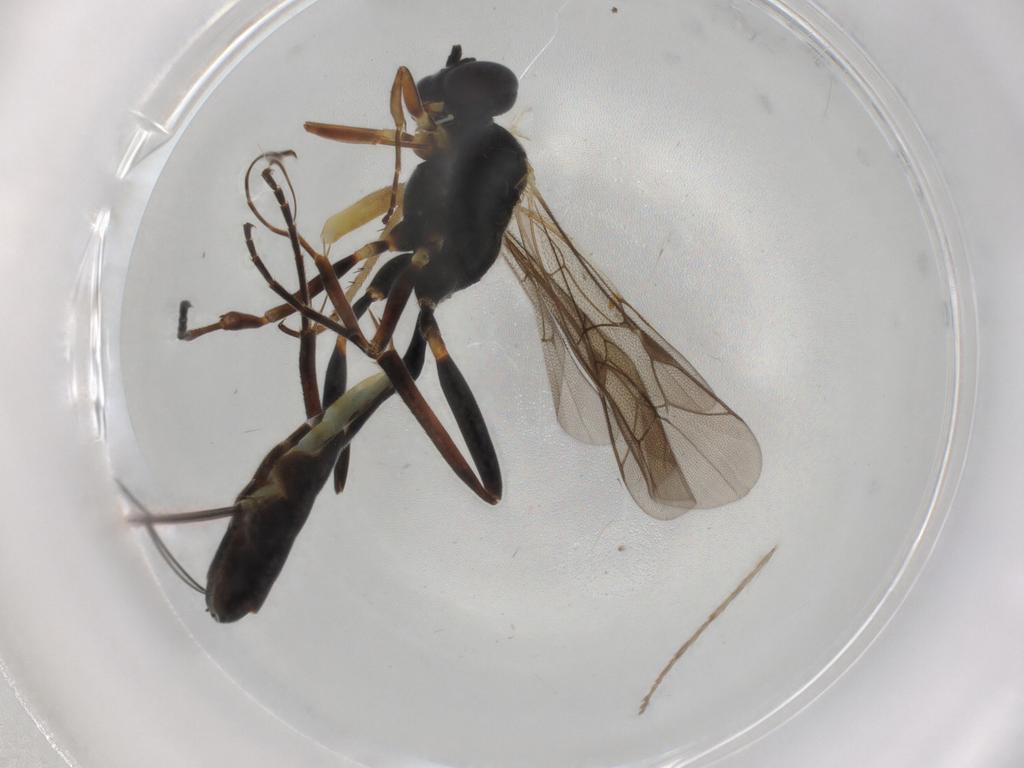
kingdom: Animalia
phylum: Arthropoda
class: Insecta
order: Hymenoptera
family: Ichneumonidae
